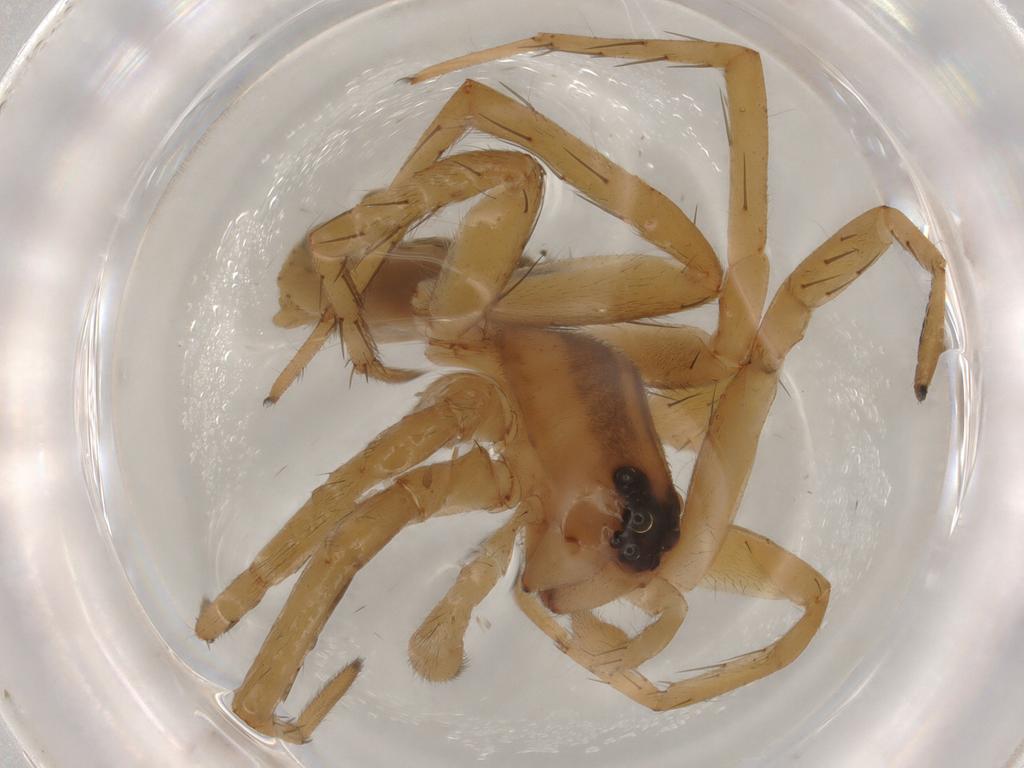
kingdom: Animalia
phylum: Arthropoda
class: Arachnida
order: Araneae
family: Lycosidae
